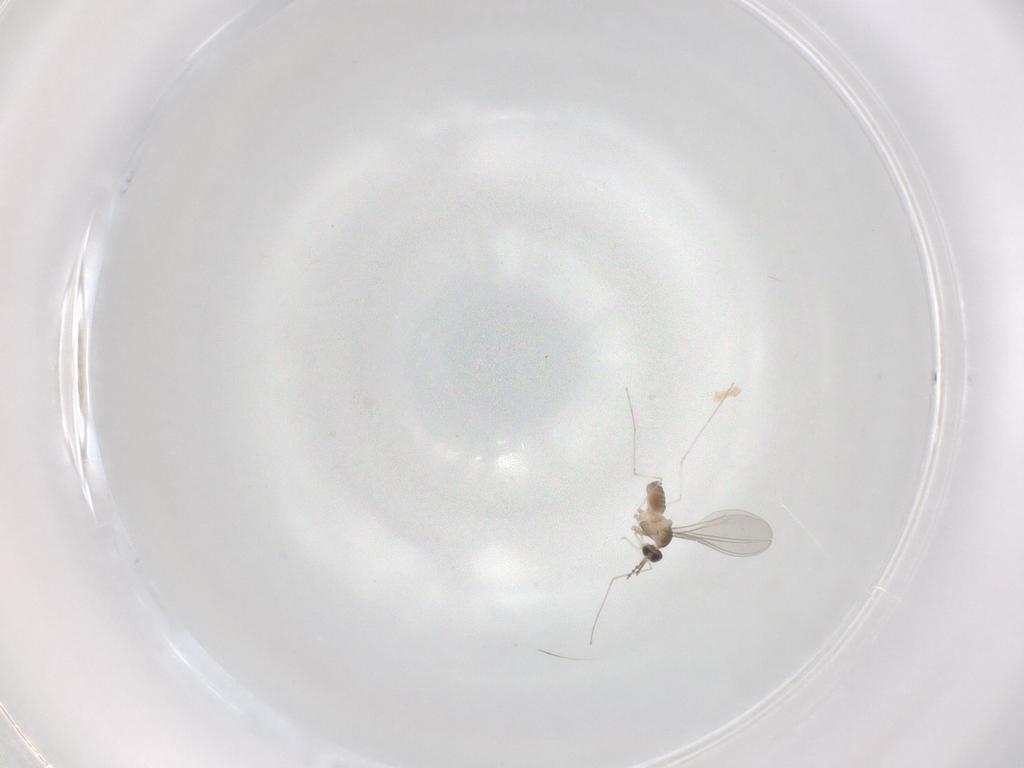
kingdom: Animalia
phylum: Arthropoda
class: Insecta
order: Diptera
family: Cecidomyiidae
